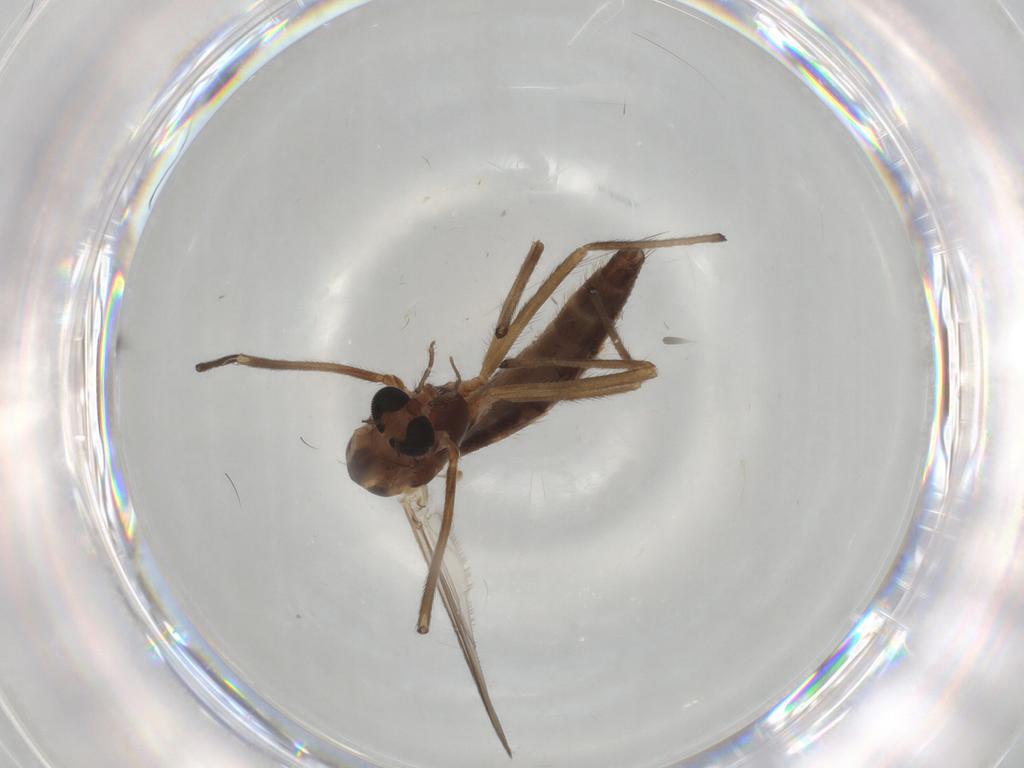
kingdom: Animalia
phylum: Arthropoda
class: Insecta
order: Diptera
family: Chironomidae
